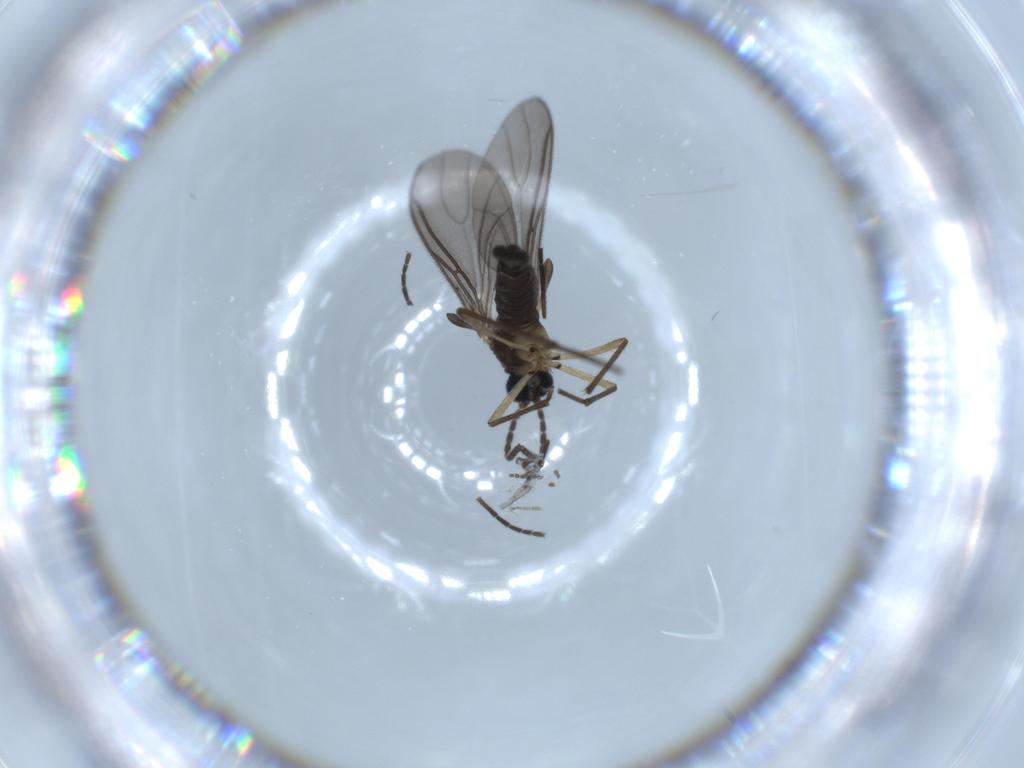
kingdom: Animalia
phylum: Arthropoda
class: Insecta
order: Diptera
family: Sciaridae
